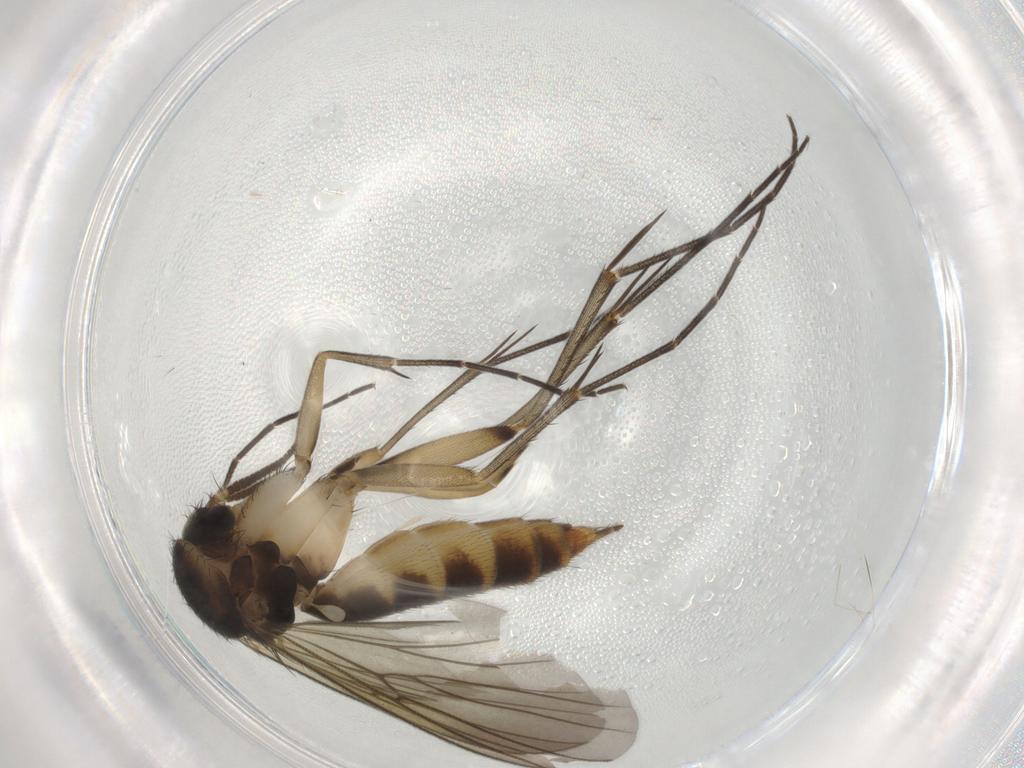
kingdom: Animalia
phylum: Arthropoda
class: Insecta
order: Diptera
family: Mycetophilidae
